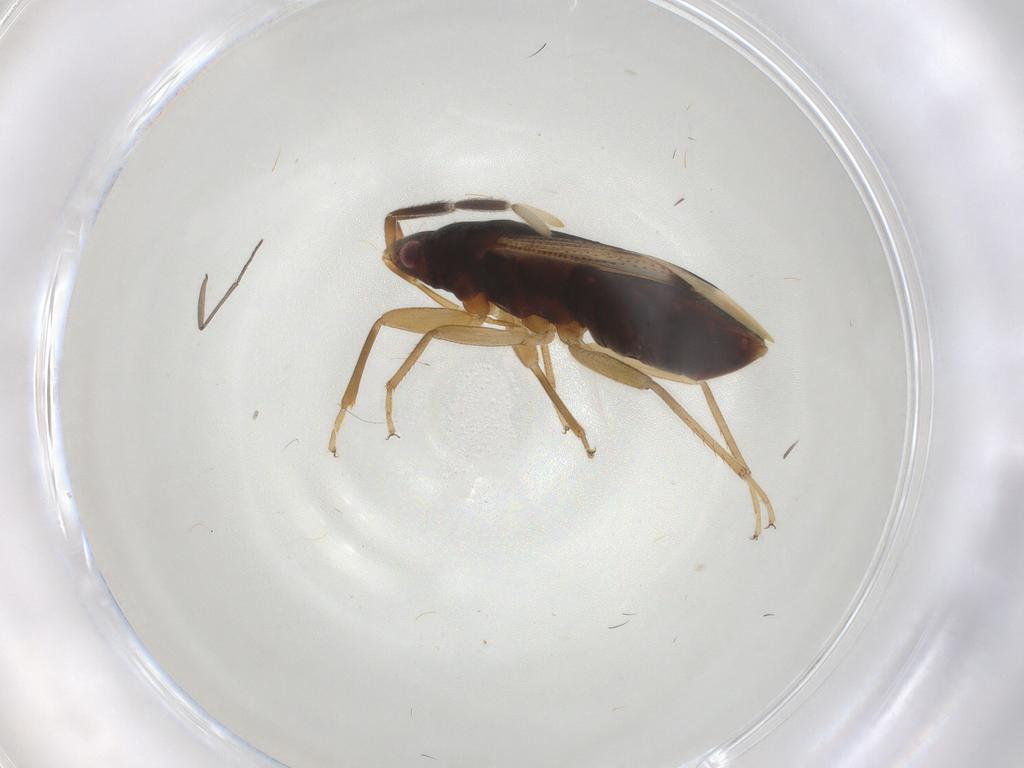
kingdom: Animalia
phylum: Arthropoda
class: Insecta
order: Hemiptera
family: Rhyparochromidae
